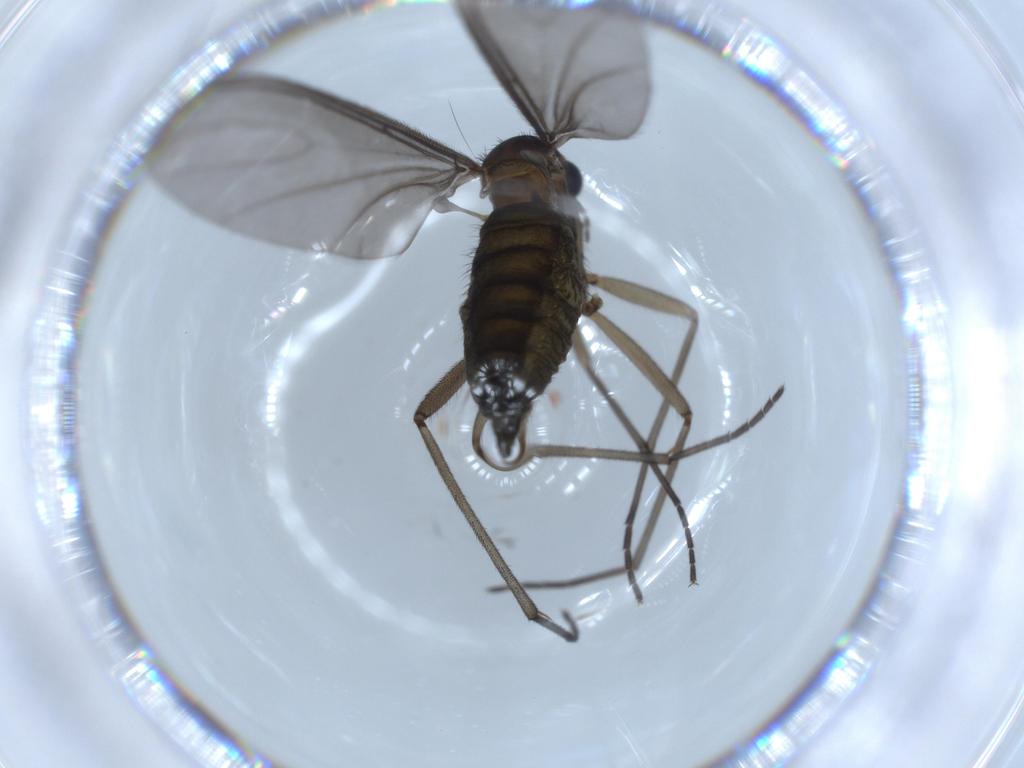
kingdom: Animalia
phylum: Arthropoda
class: Insecta
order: Diptera
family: Sciaridae
